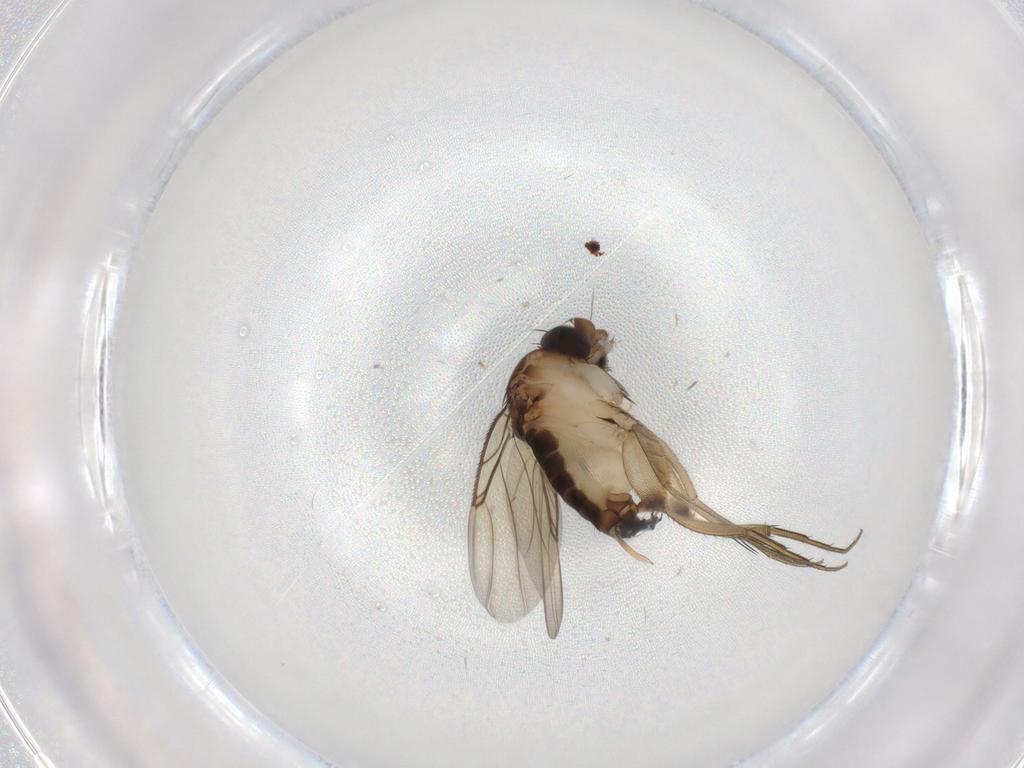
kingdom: Animalia
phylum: Arthropoda
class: Insecta
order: Diptera
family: Phoridae
